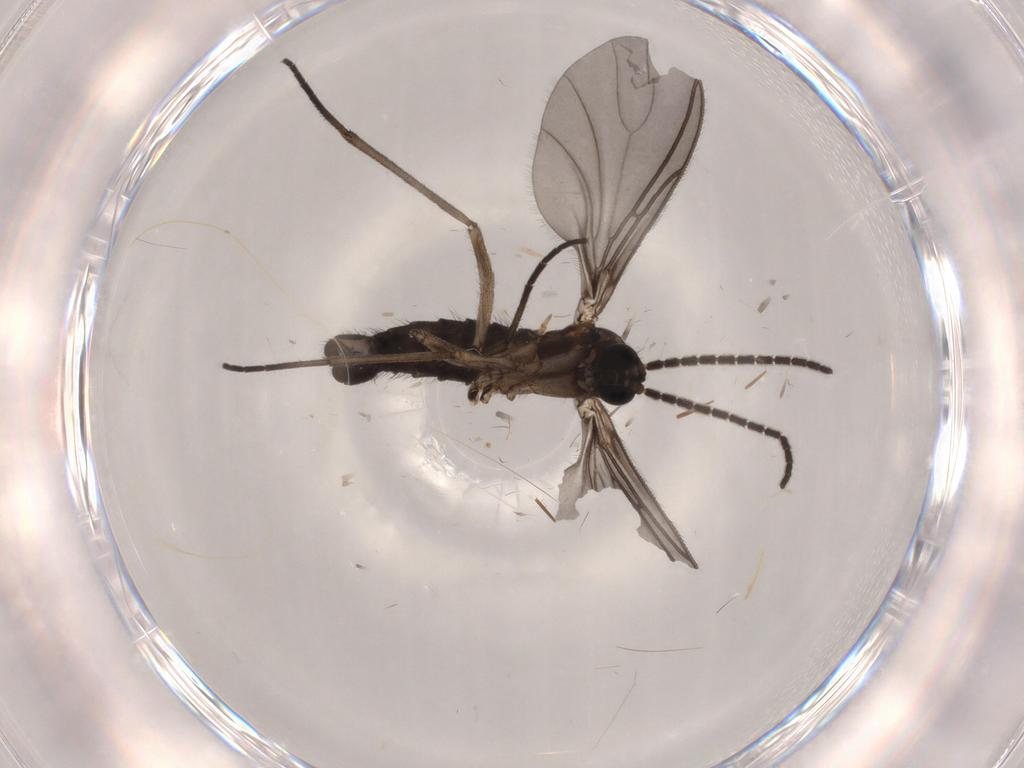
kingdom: Animalia
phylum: Arthropoda
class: Insecta
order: Diptera
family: Sciaridae
